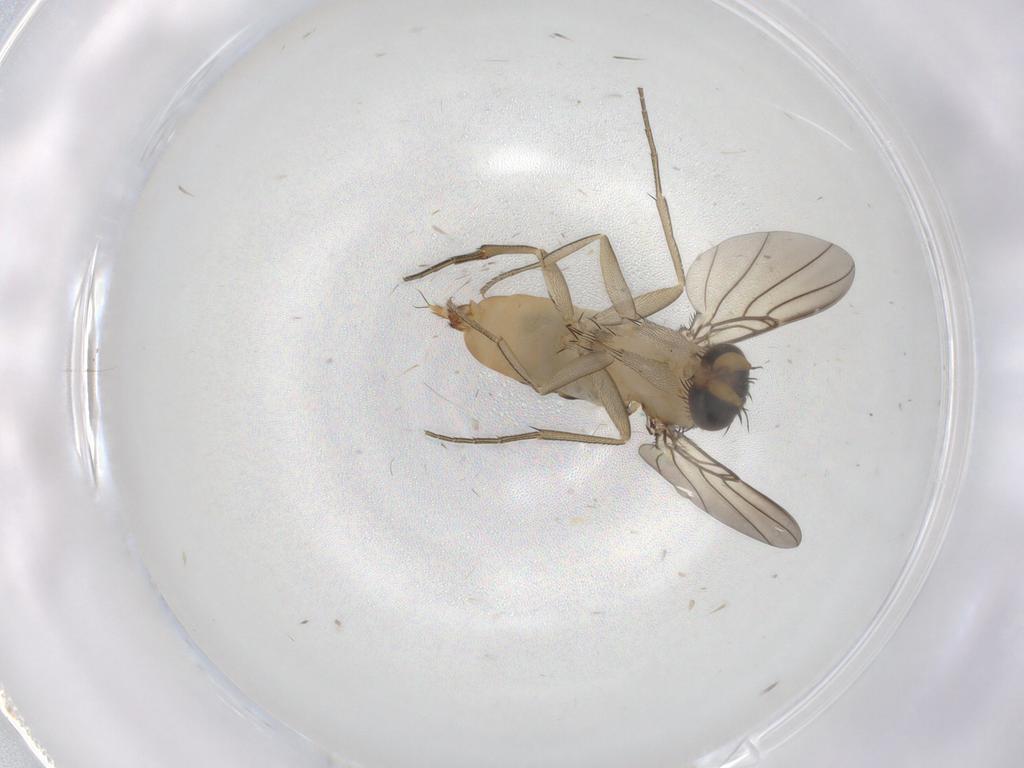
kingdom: Animalia
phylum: Arthropoda
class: Insecta
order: Diptera
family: Phoridae
